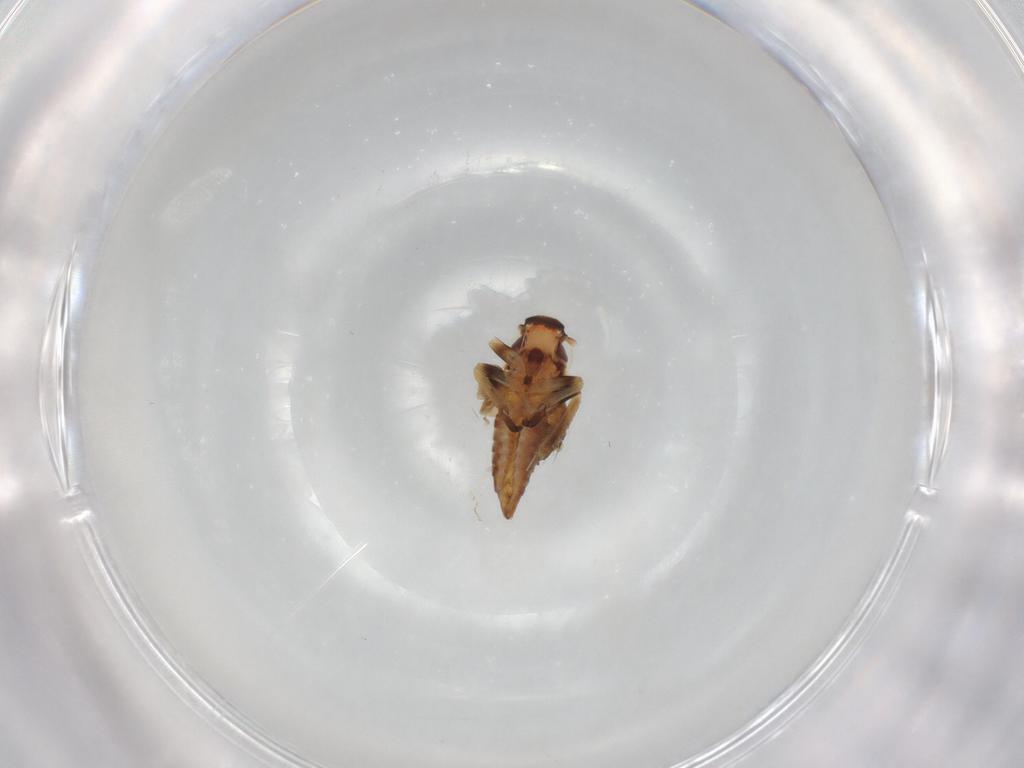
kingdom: Animalia
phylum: Arthropoda
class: Insecta
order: Hemiptera
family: Cicadellidae
